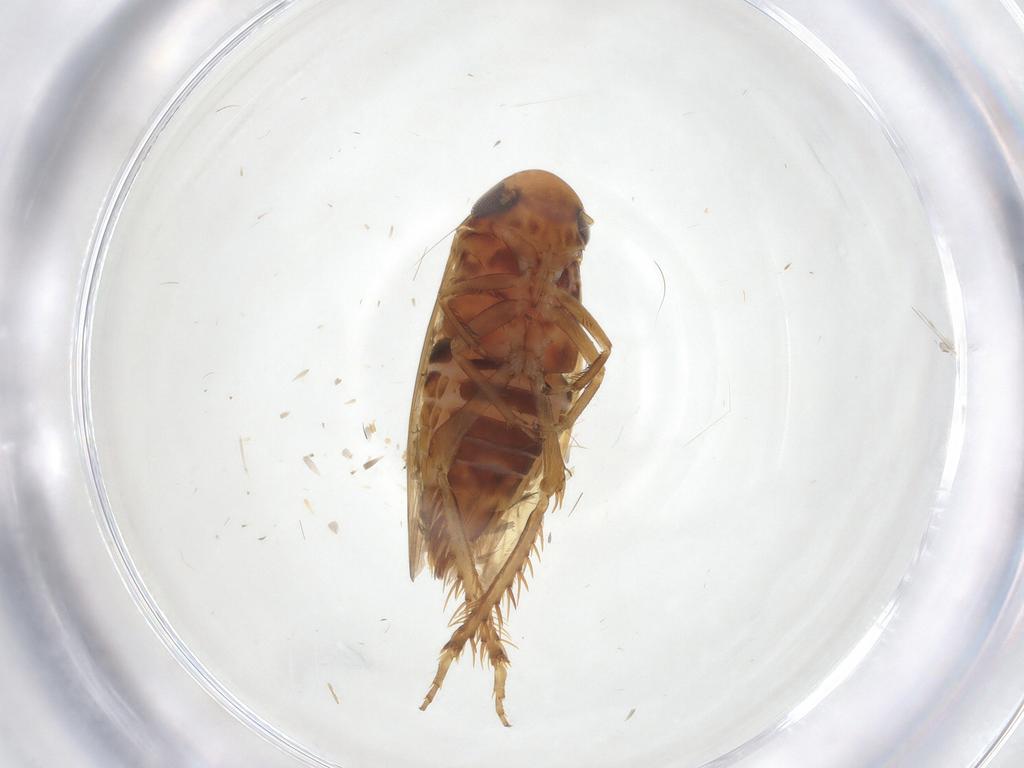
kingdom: Animalia
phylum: Arthropoda
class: Insecta
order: Hemiptera
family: Cicadellidae
